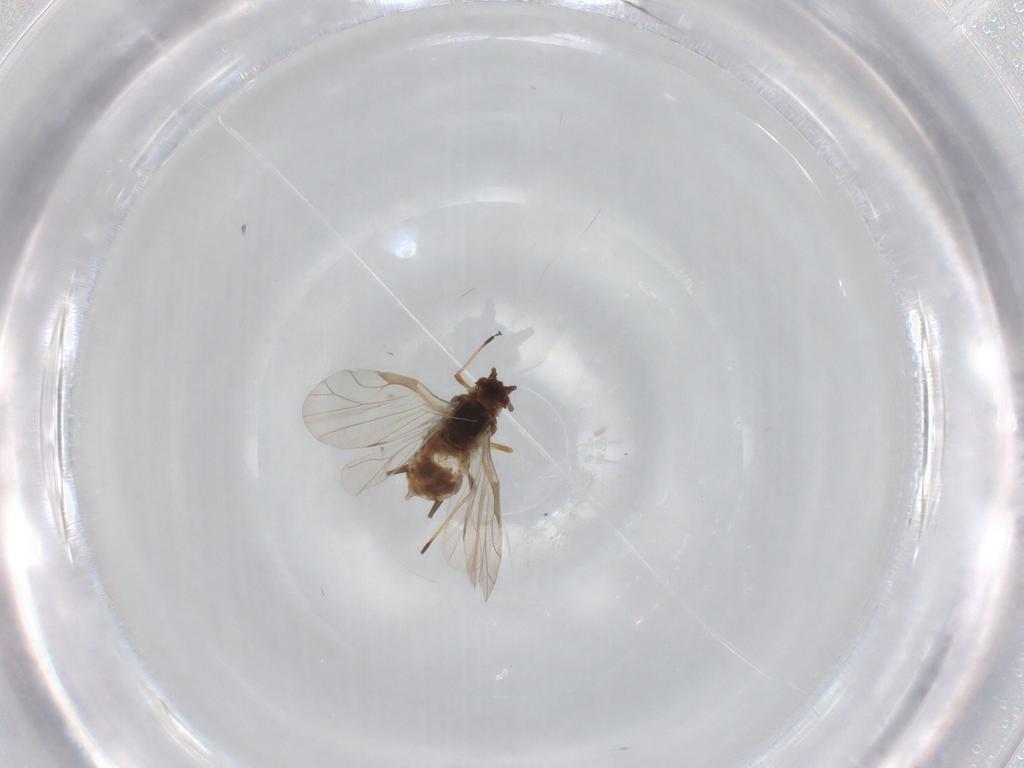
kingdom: Animalia
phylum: Arthropoda
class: Insecta
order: Hemiptera
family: Aphididae
